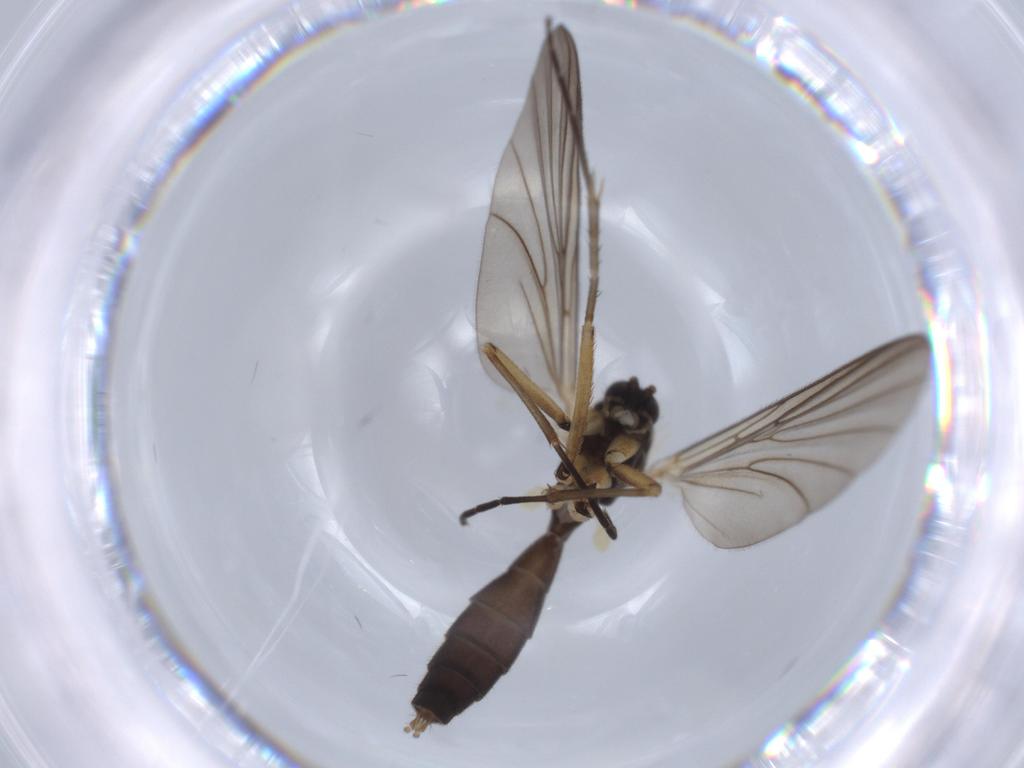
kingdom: Animalia
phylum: Arthropoda
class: Insecta
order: Diptera
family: Mycetophilidae
